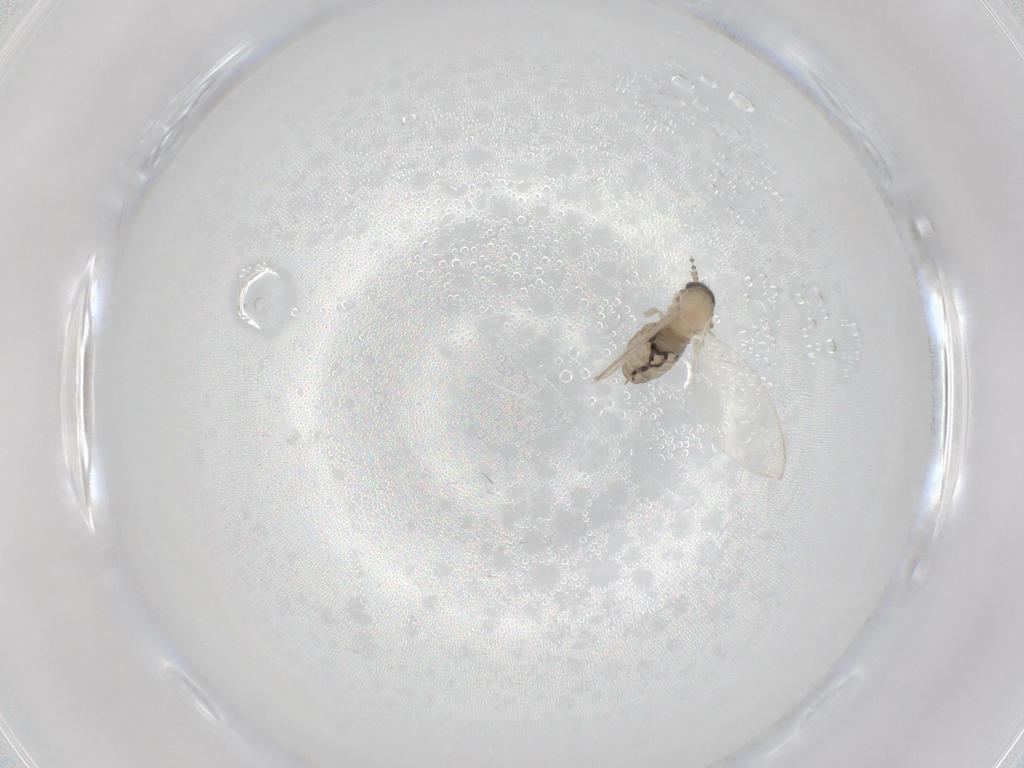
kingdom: Animalia
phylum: Arthropoda
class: Insecta
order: Diptera
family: Psychodidae
